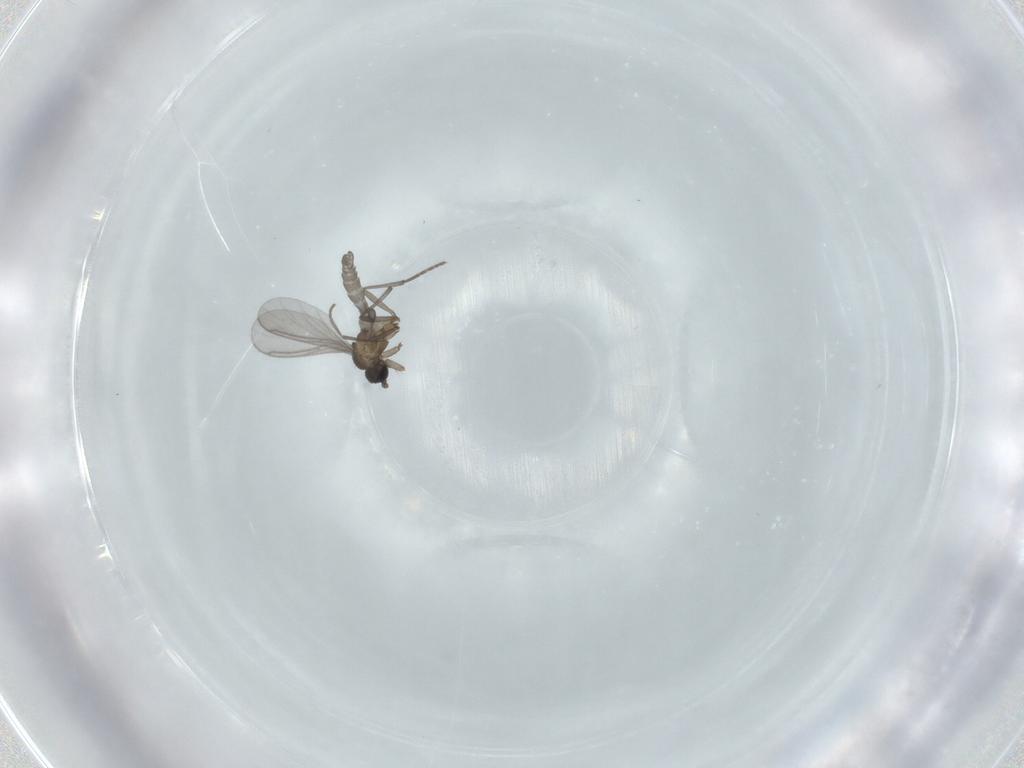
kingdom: Animalia
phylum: Arthropoda
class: Insecta
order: Diptera
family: Sciaridae
